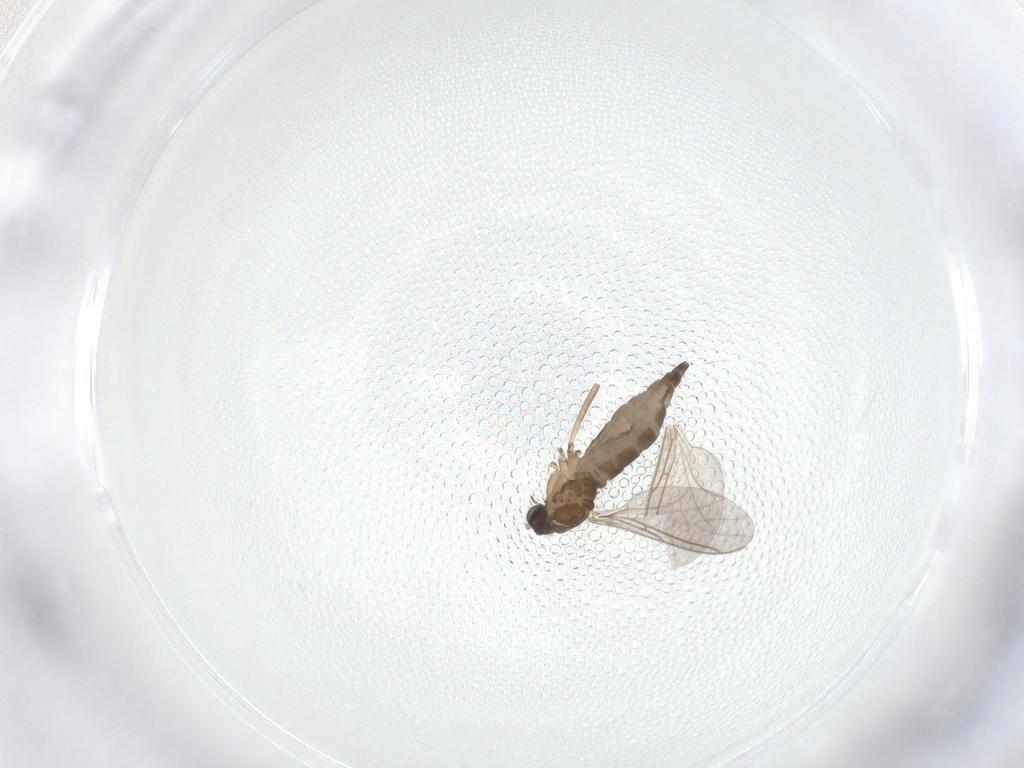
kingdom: Animalia
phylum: Arthropoda
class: Insecta
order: Diptera
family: Sciaridae
